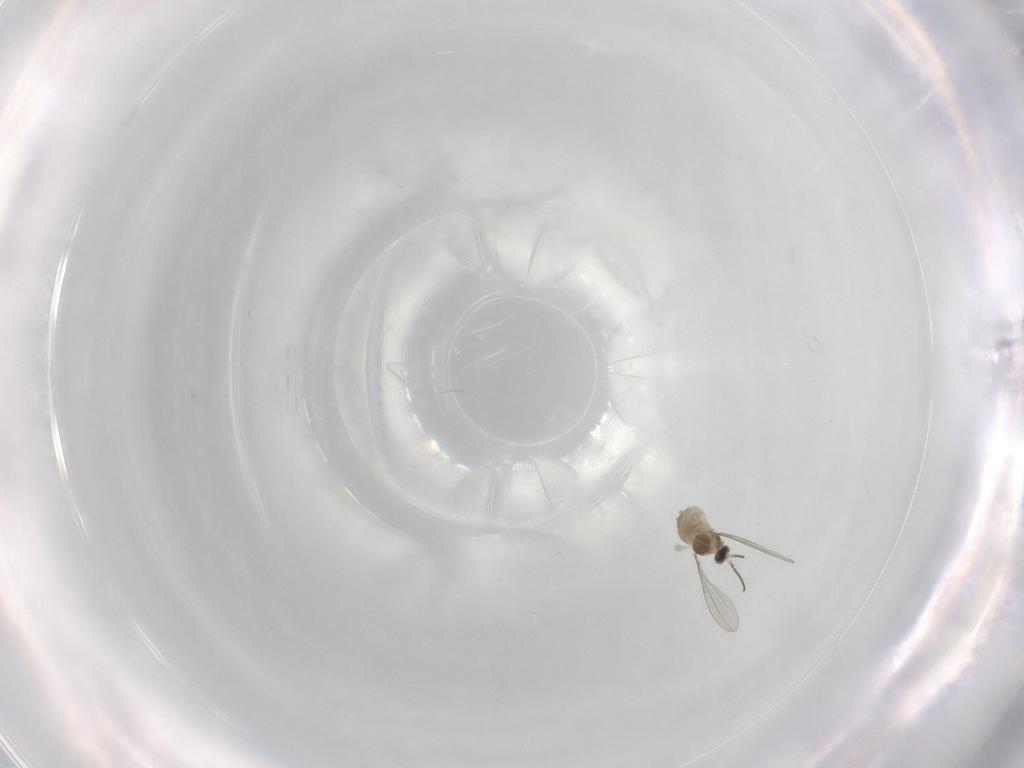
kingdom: Animalia
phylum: Arthropoda
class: Insecta
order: Diptera
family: Cecidomyiidae
